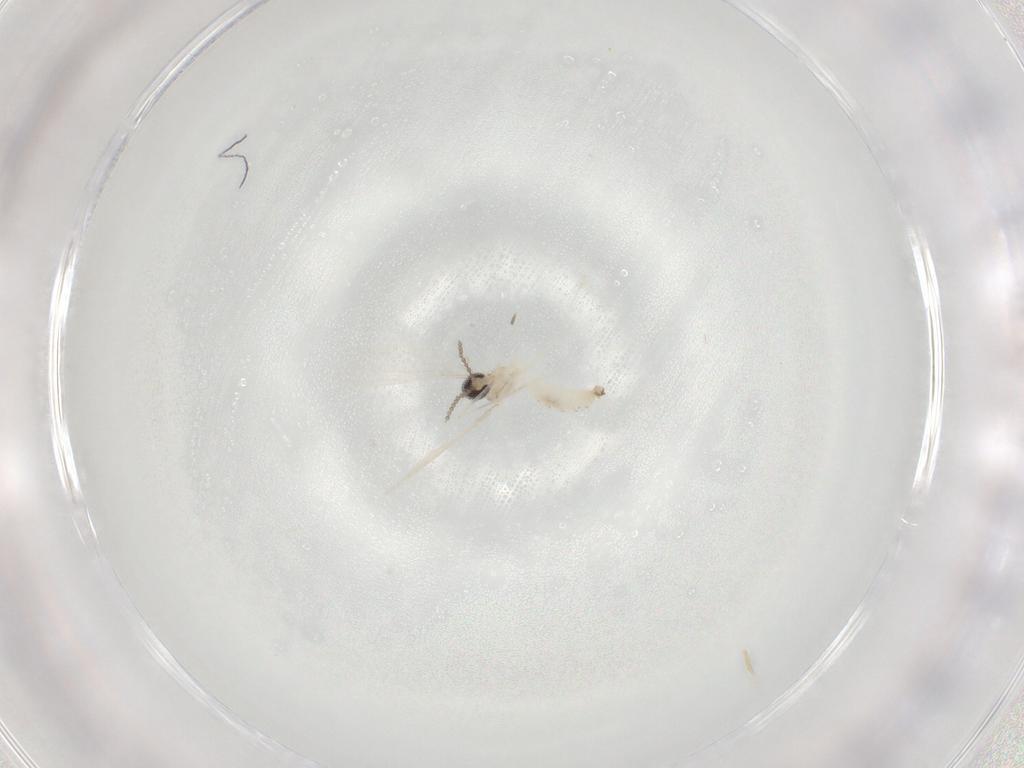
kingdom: Animalia
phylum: Arthropoda
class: Insecta
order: Diptera
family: Cecidomyiidae
